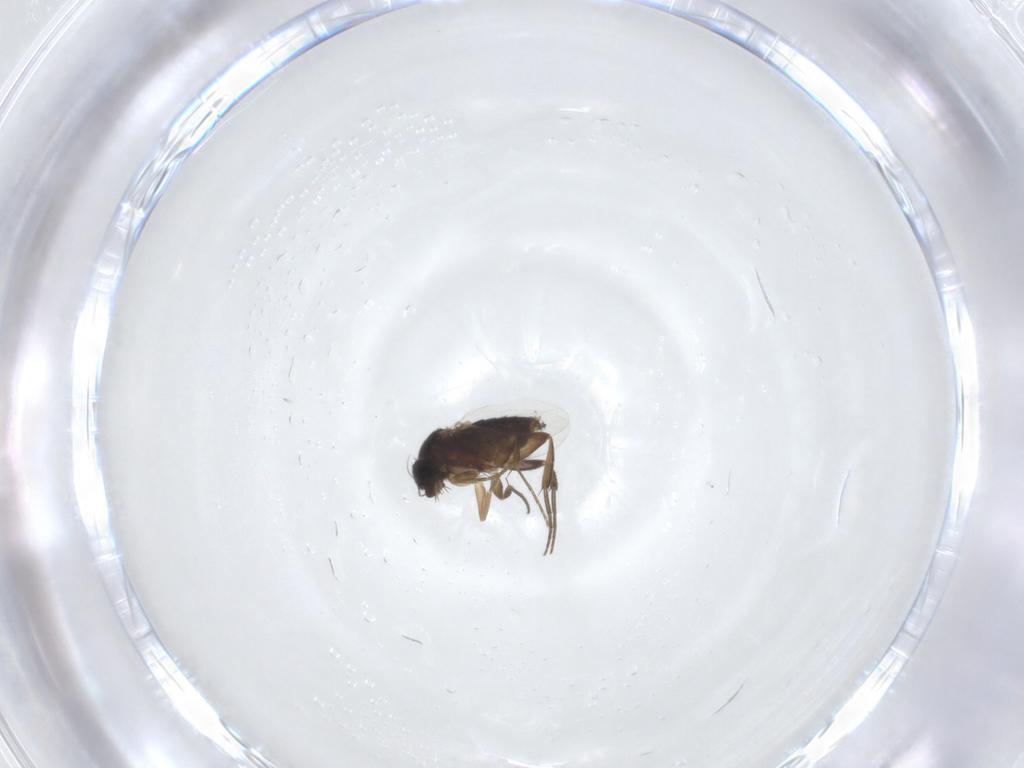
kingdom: Animalia
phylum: Arthropoda
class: Insecta
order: Diptera
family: Phoridae
